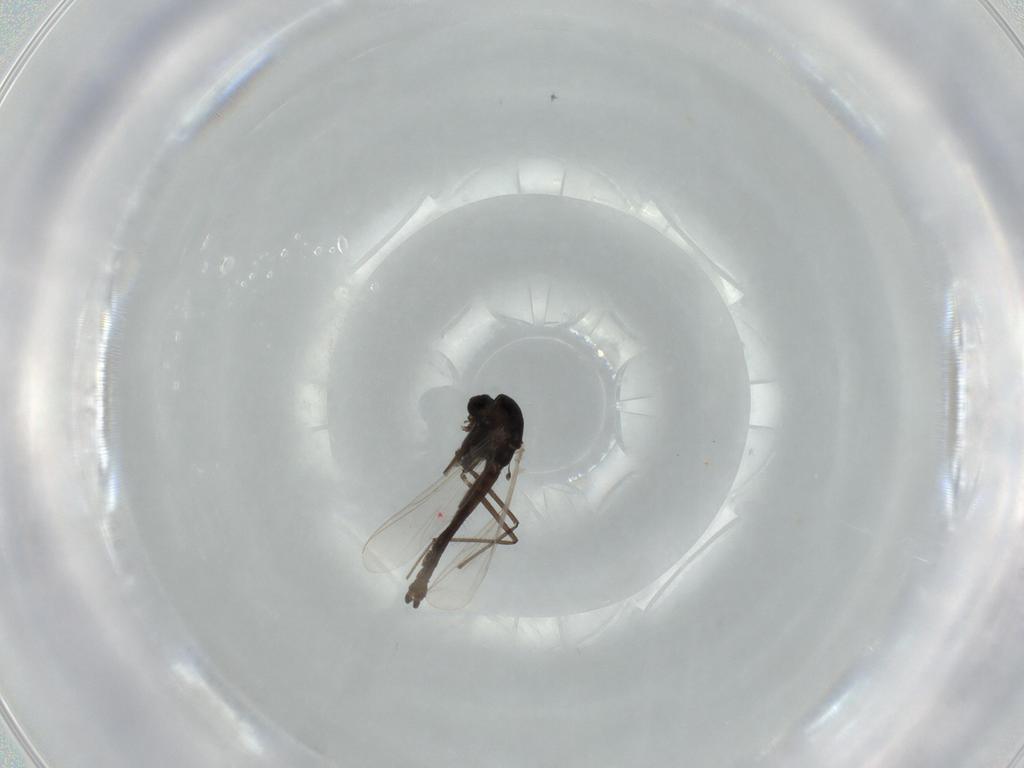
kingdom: Animalia
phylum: Arthropoda
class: Insecta
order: Diptera
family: Chironomidae
